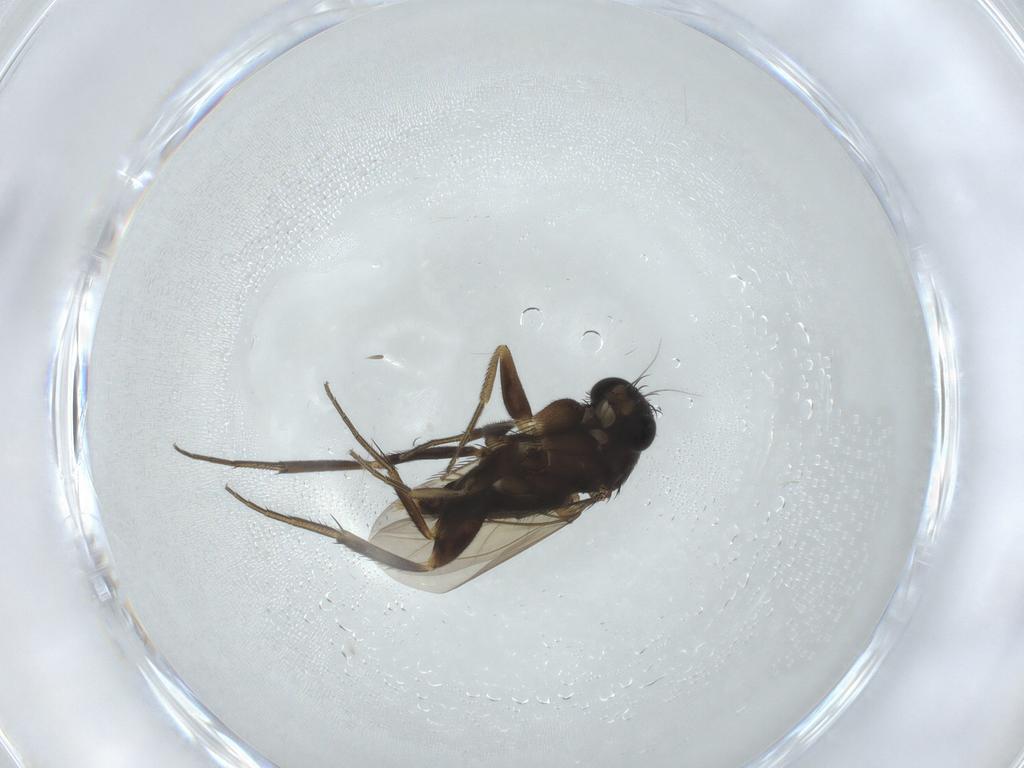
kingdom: Animalia
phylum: Arthropoda
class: Insecta
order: Diptera
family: Phoridae
